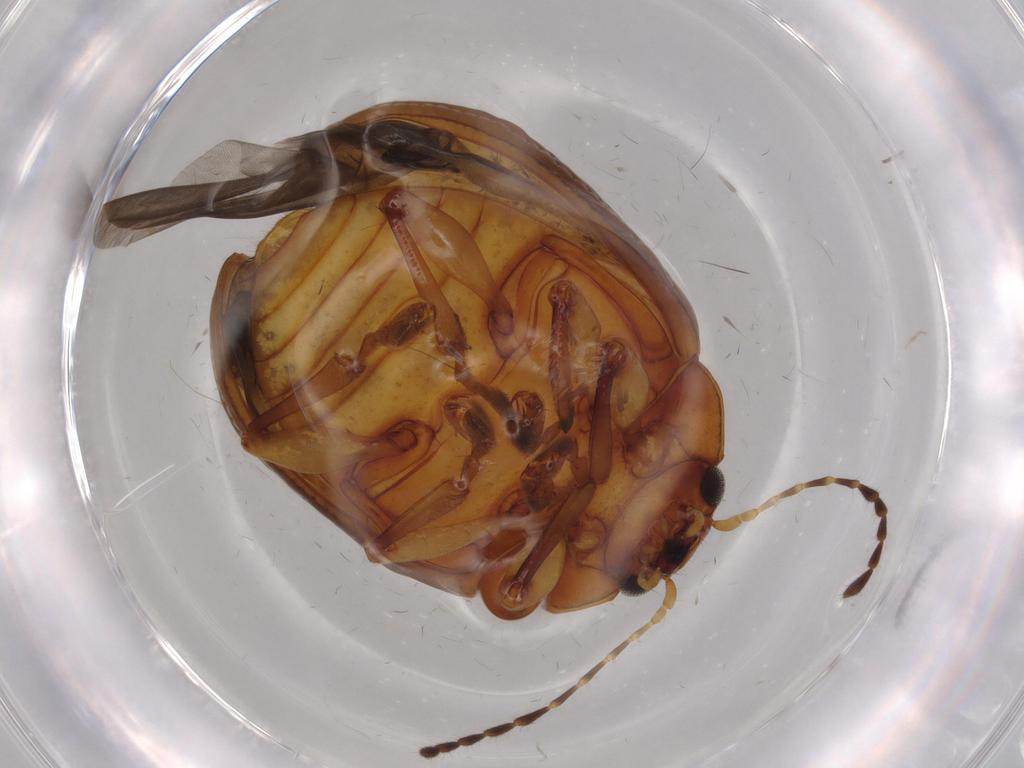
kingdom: Animalia
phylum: Arthropoda
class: Insecta
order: Coleoptera
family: Chrysomelidae
